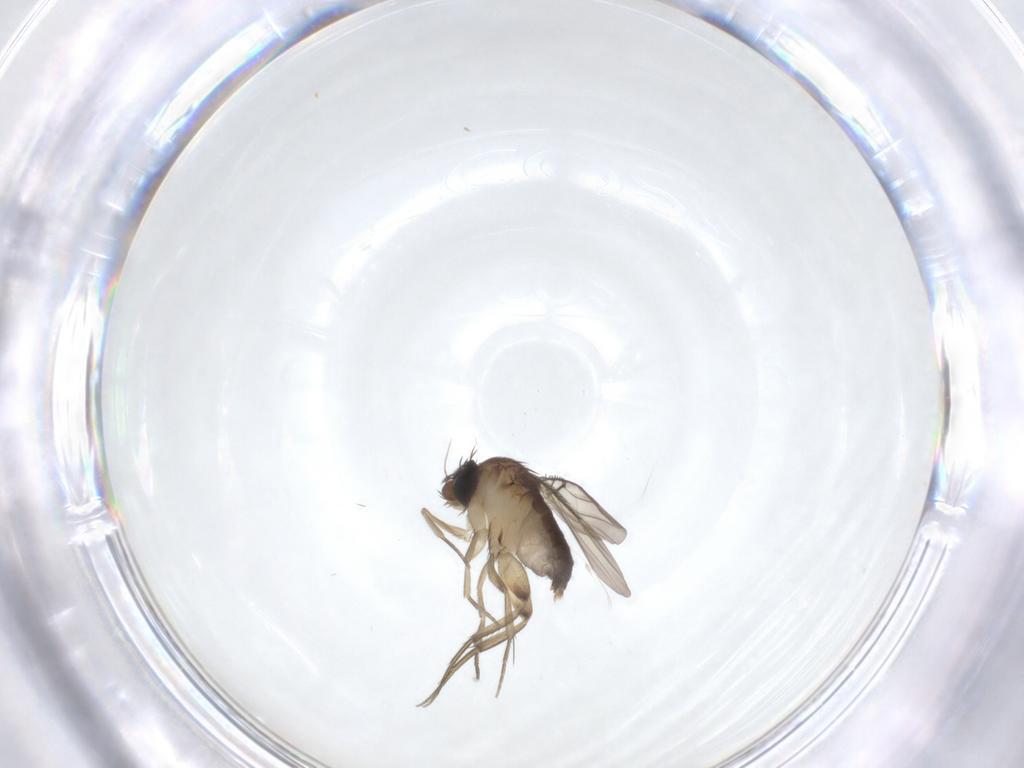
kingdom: Animalia
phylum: Arthropoda
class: Insecta
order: Diptera
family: Phoridae
